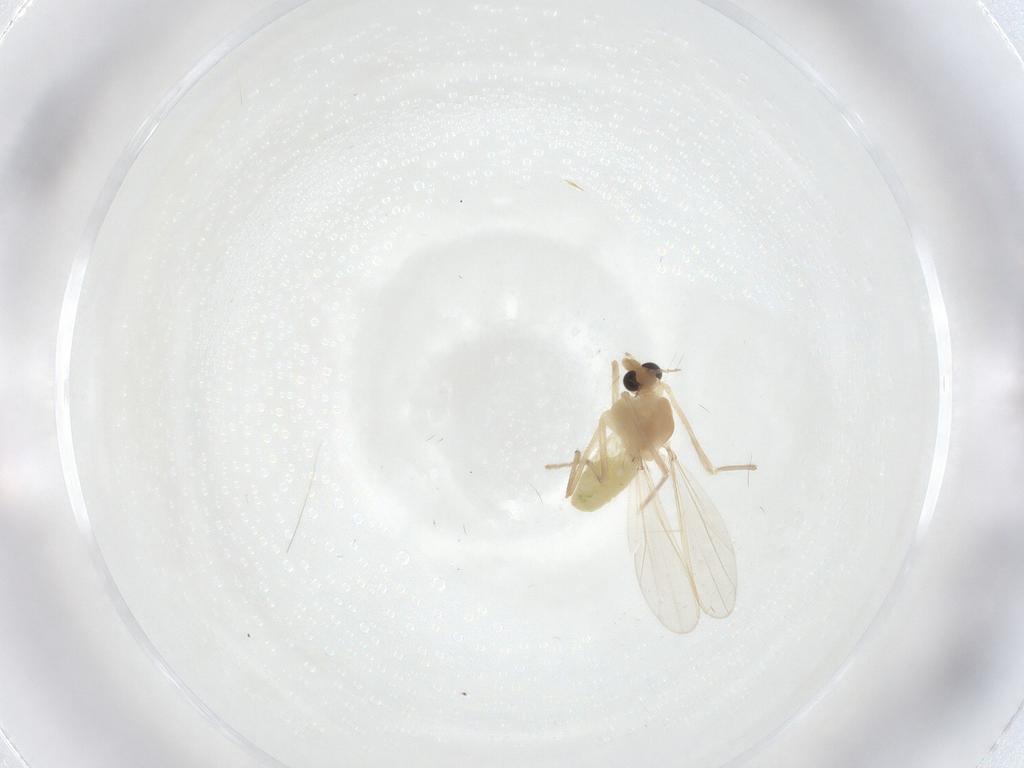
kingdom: Animalia
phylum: Arthropoda
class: Insecta
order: Diptera
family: Chironomidae
